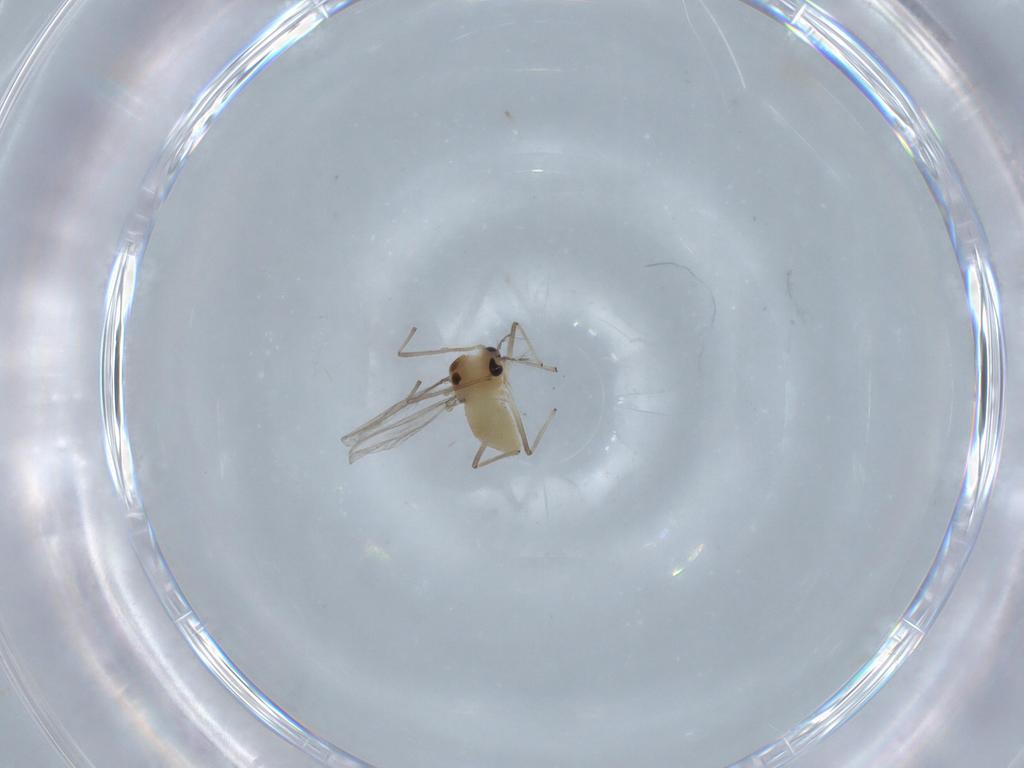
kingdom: Animalia
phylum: Arthropoda
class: Insecta
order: Diptera
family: Chironomidae
